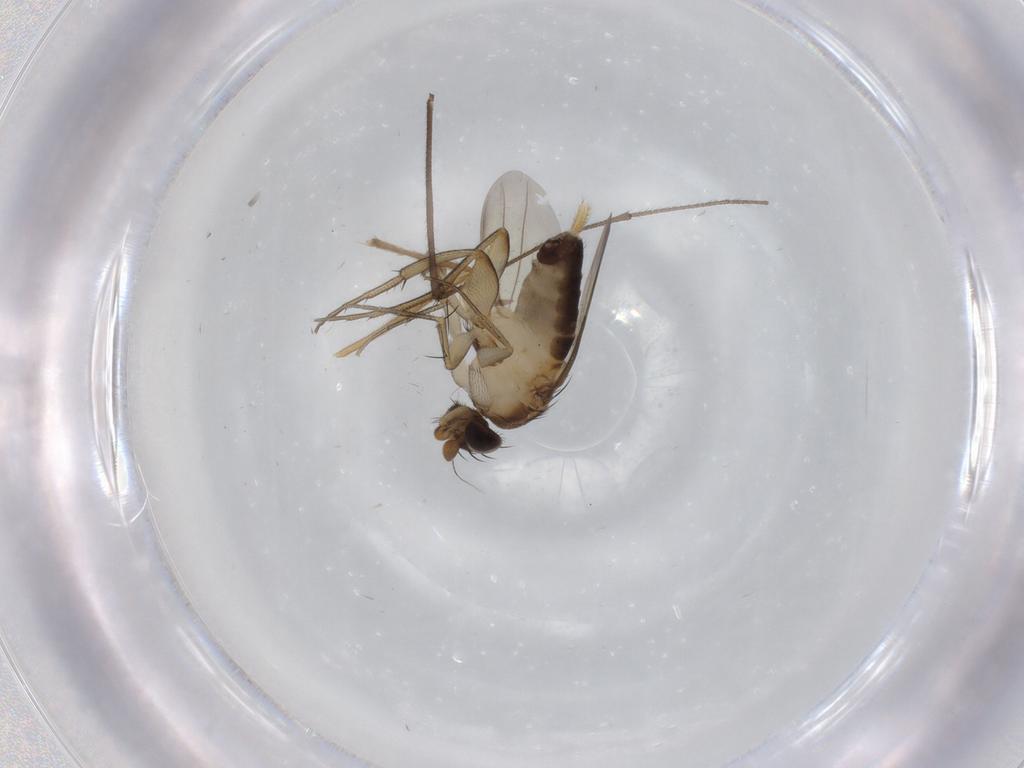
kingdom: Animalia
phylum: Arthropoda
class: Insecta
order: Diptera
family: Phoridae
